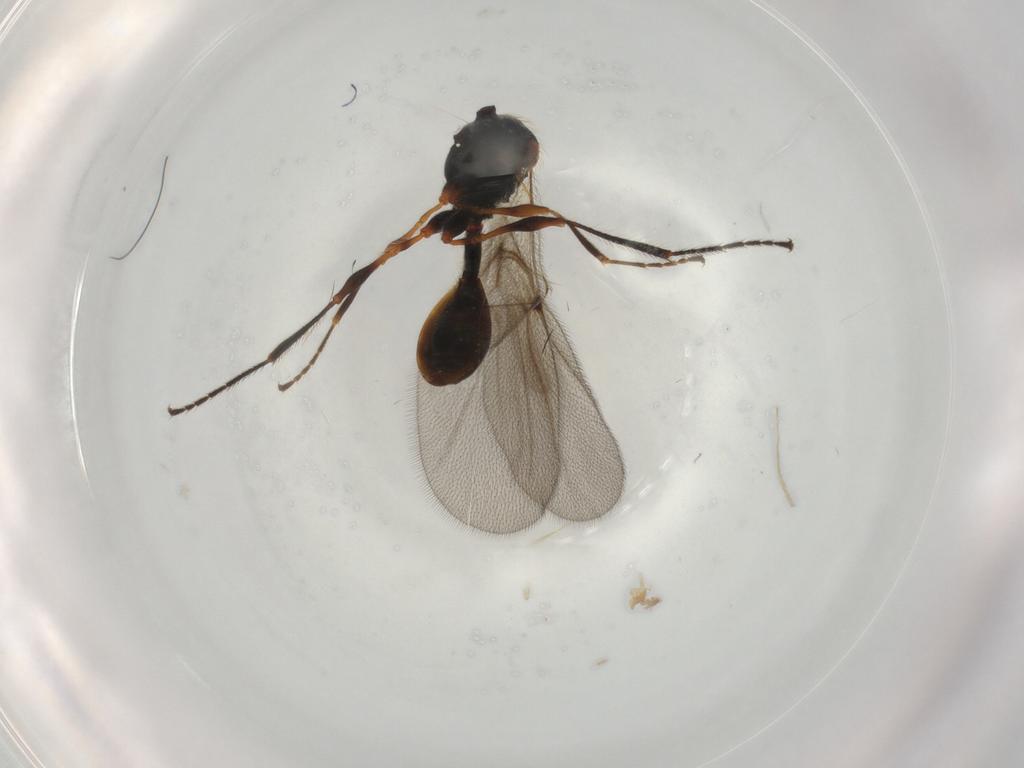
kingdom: Animalia
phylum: Arthropoda
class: Insecta
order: Hymenoptera
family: Diapriidae
